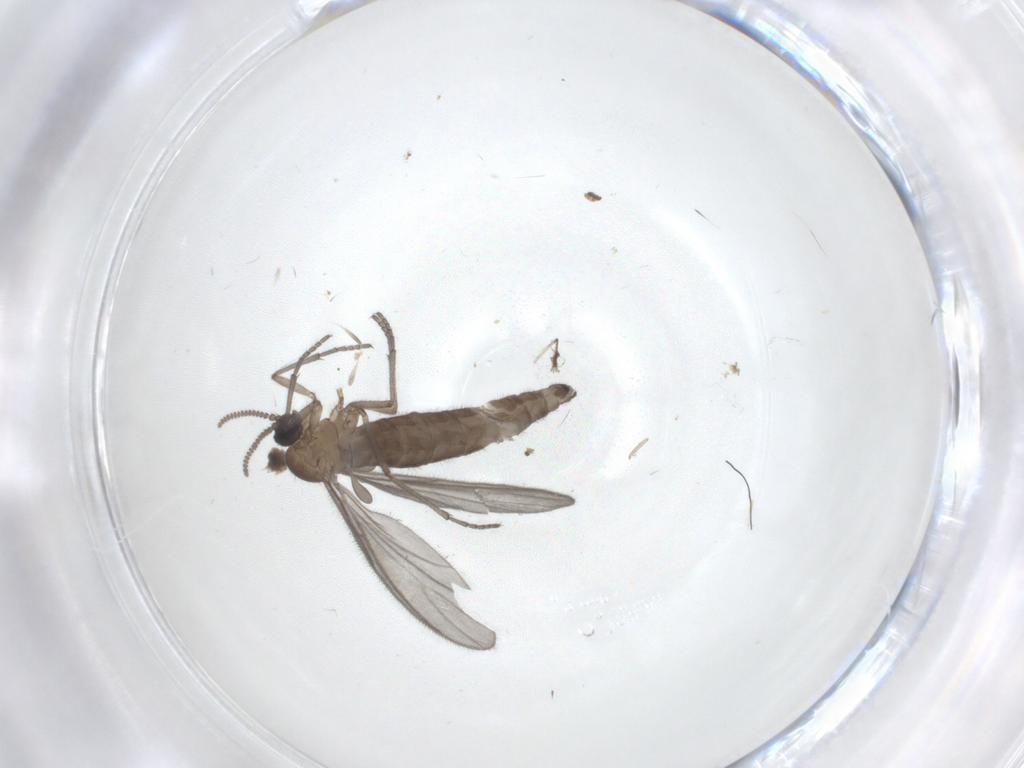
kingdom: Animalia
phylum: Arthropoda
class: Insecta
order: Diptera
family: Sciaridae
